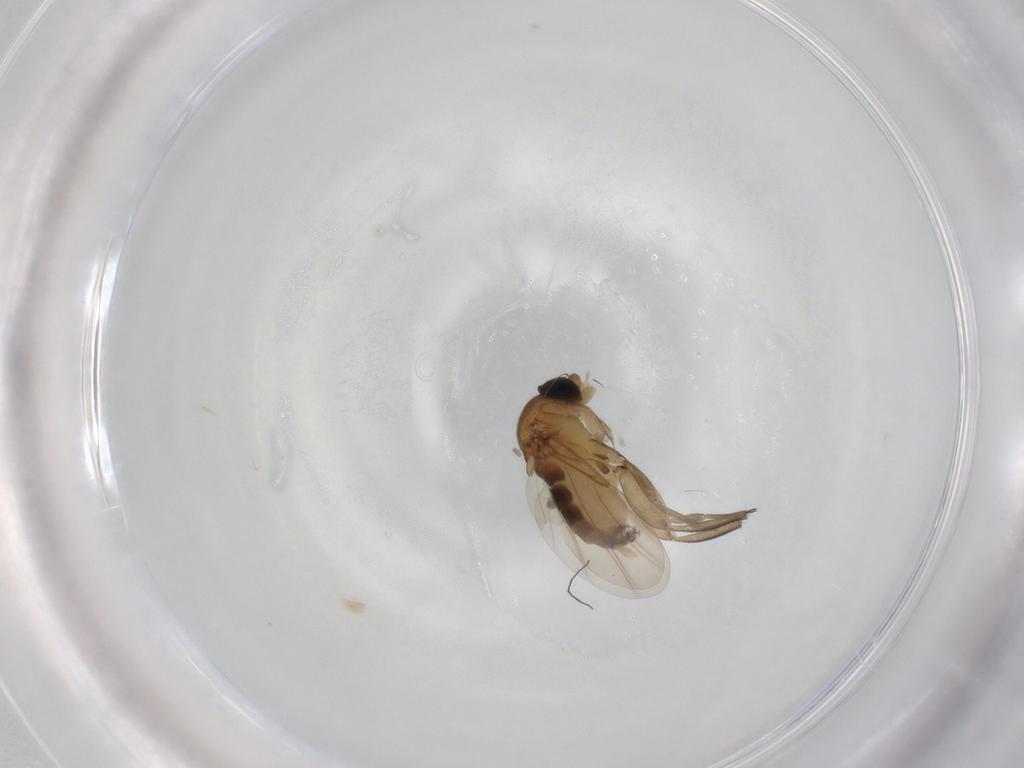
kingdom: Animalia
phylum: Arthropoda
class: Insecta
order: Diptera
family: Phoridae
